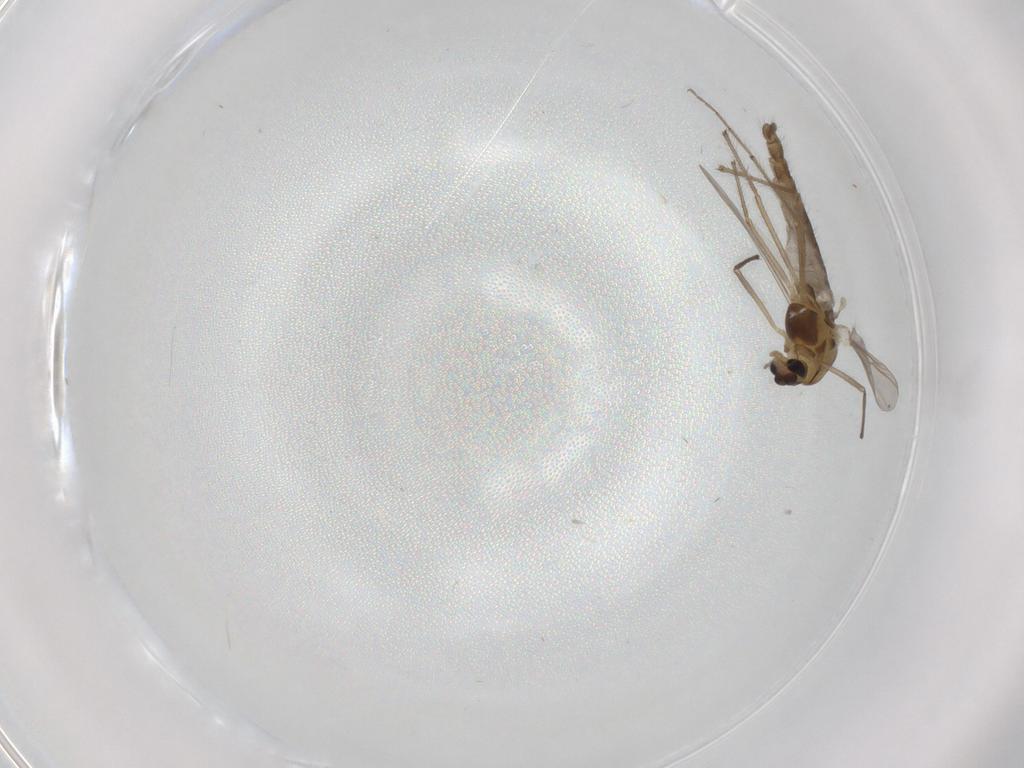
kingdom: Animalia
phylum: Arthropoda
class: Insecta
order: Diptera
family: Chironomidae
